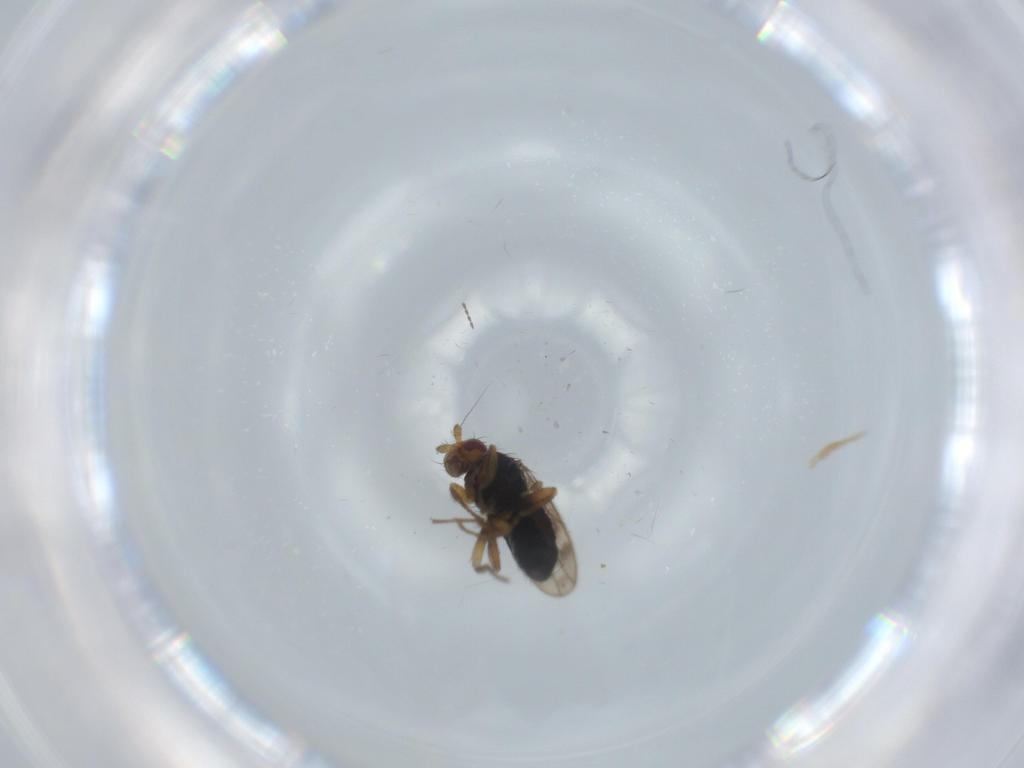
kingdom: Animalia
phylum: Arthropoda
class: Insecta
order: Diptera
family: Sphaeroceridae
